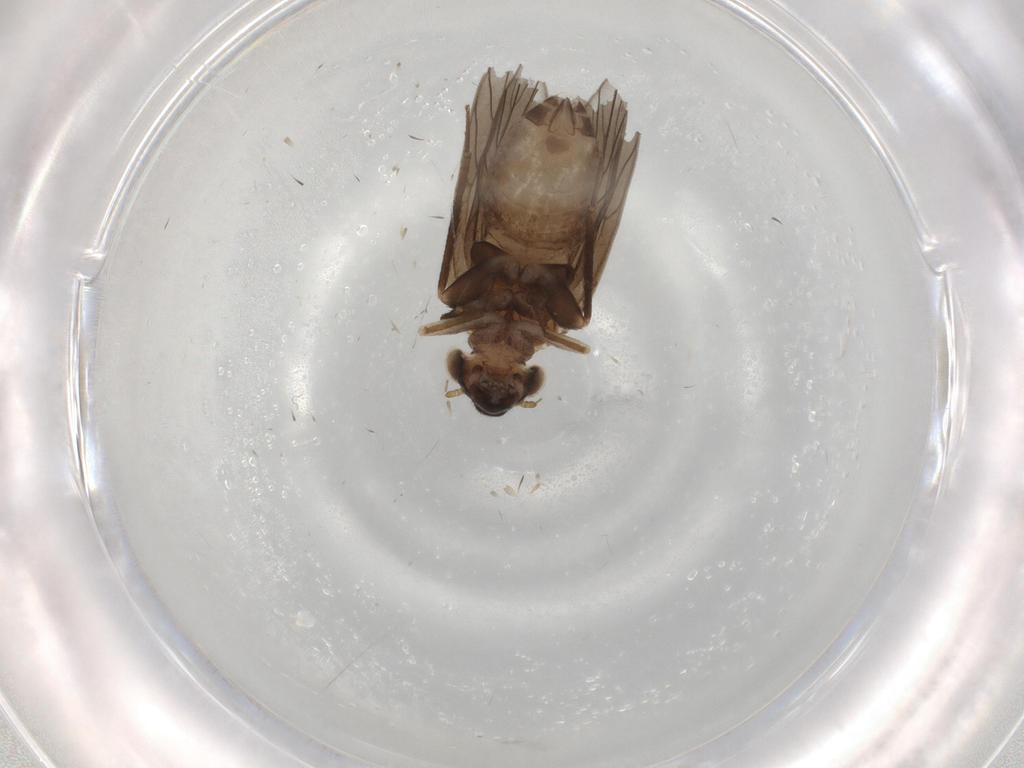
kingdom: Animalia
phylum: Arthropoda
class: Insecta
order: Psocodea
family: Lepidopsocidae
